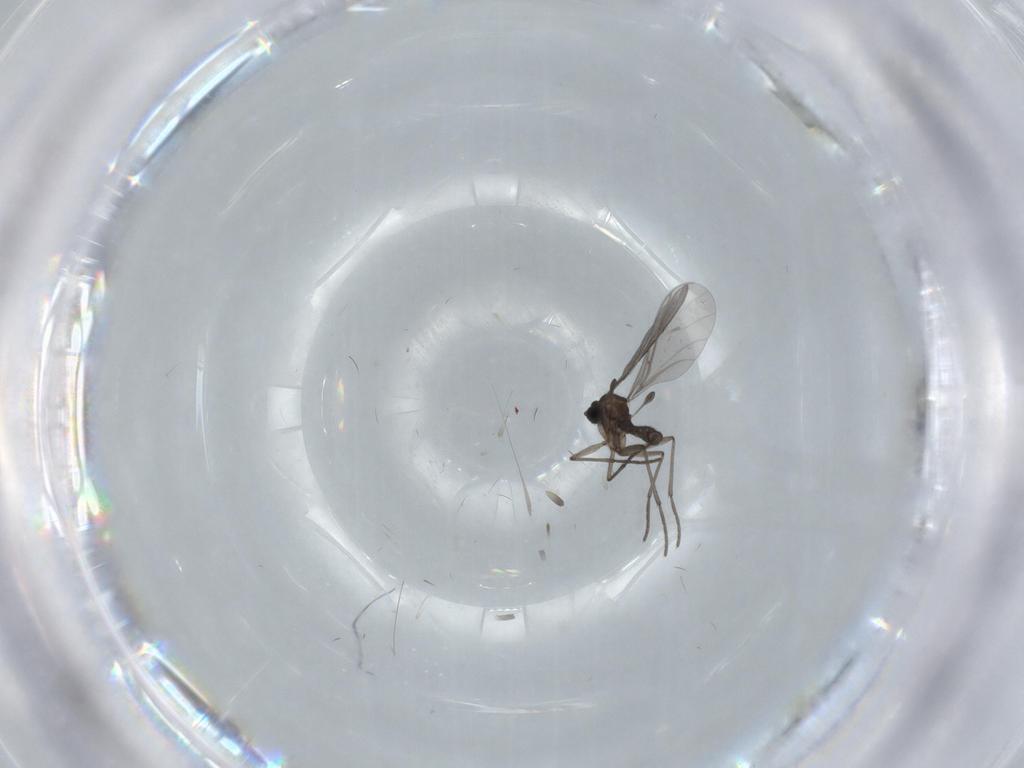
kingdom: Animalia
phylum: Arthropoda
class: Insecta
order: Diptera
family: Sciaridae
